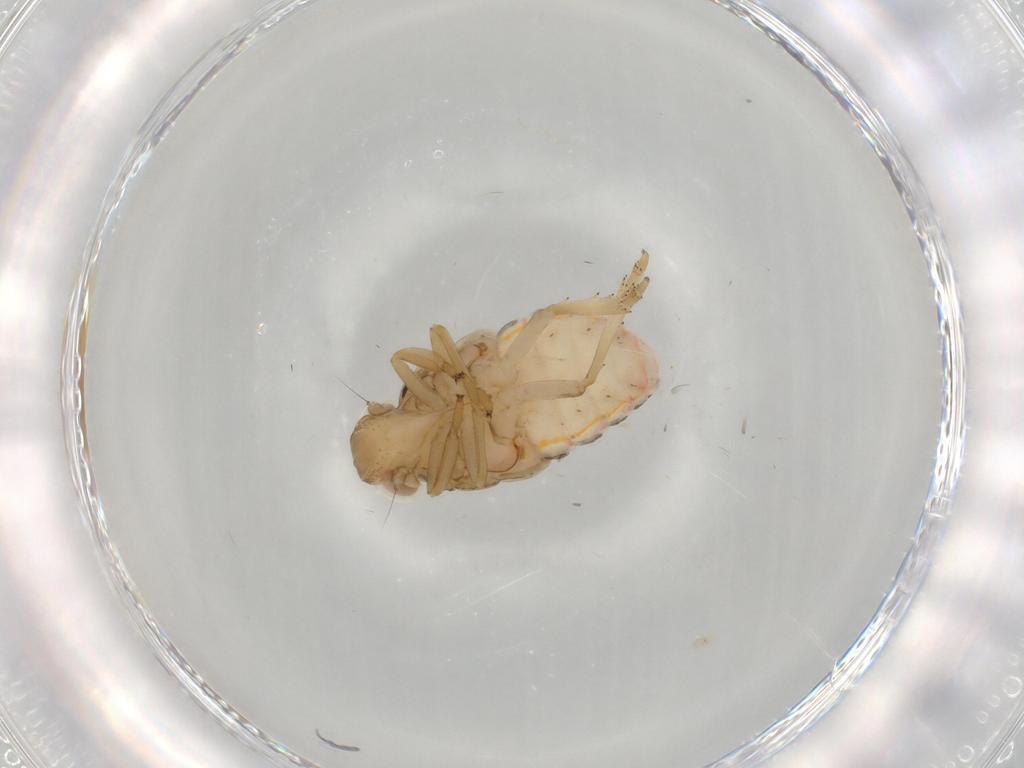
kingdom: Animalia
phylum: Arthropoda
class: Insecta
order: Hemiptera
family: Issidae
